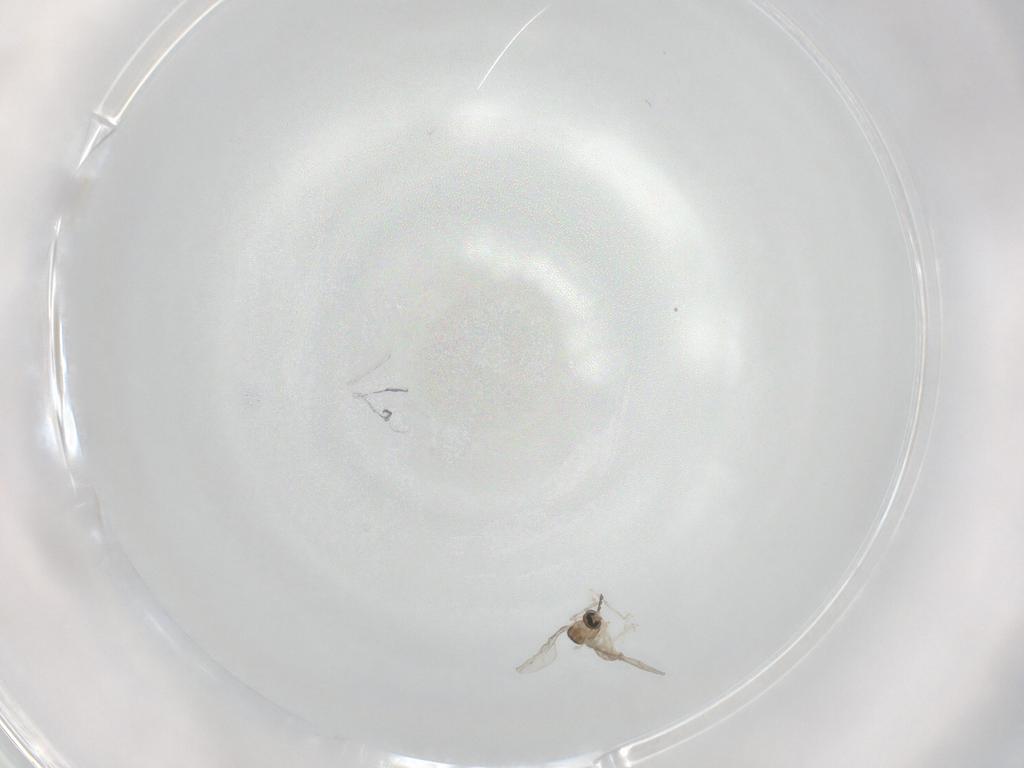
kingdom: Animalia
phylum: Arthropoda
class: Insecta
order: Diptera
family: Cecidomyiidae
